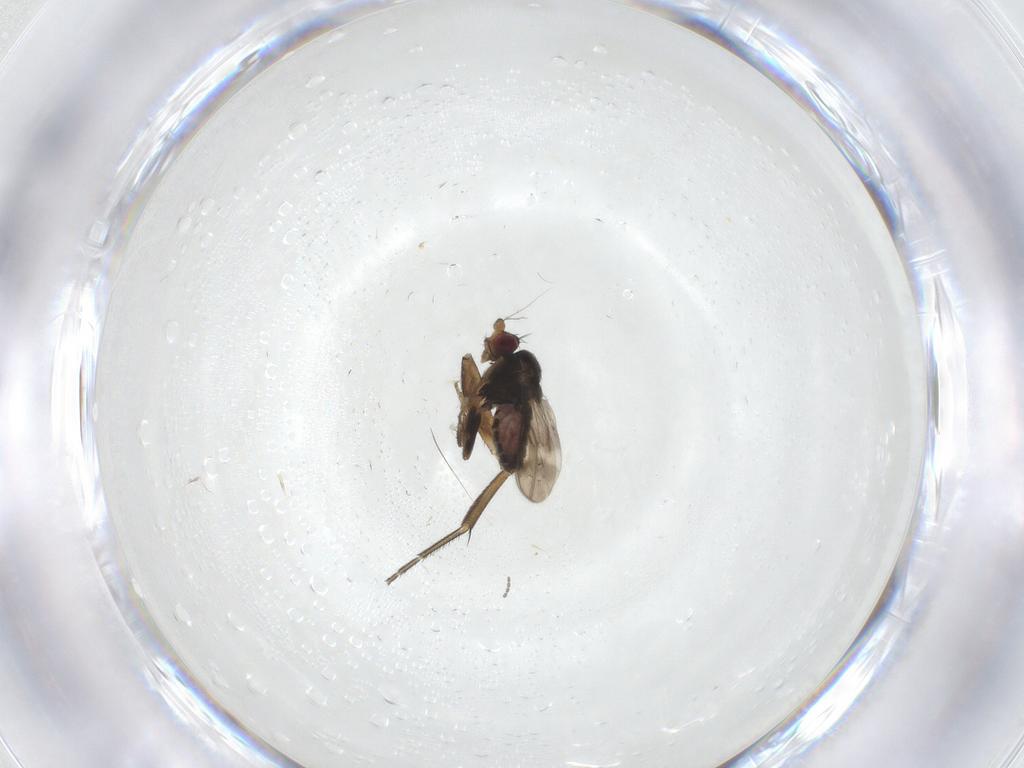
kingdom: Animalia
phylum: Arthropoda
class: Insecta
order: Diptera
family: Phoridae
